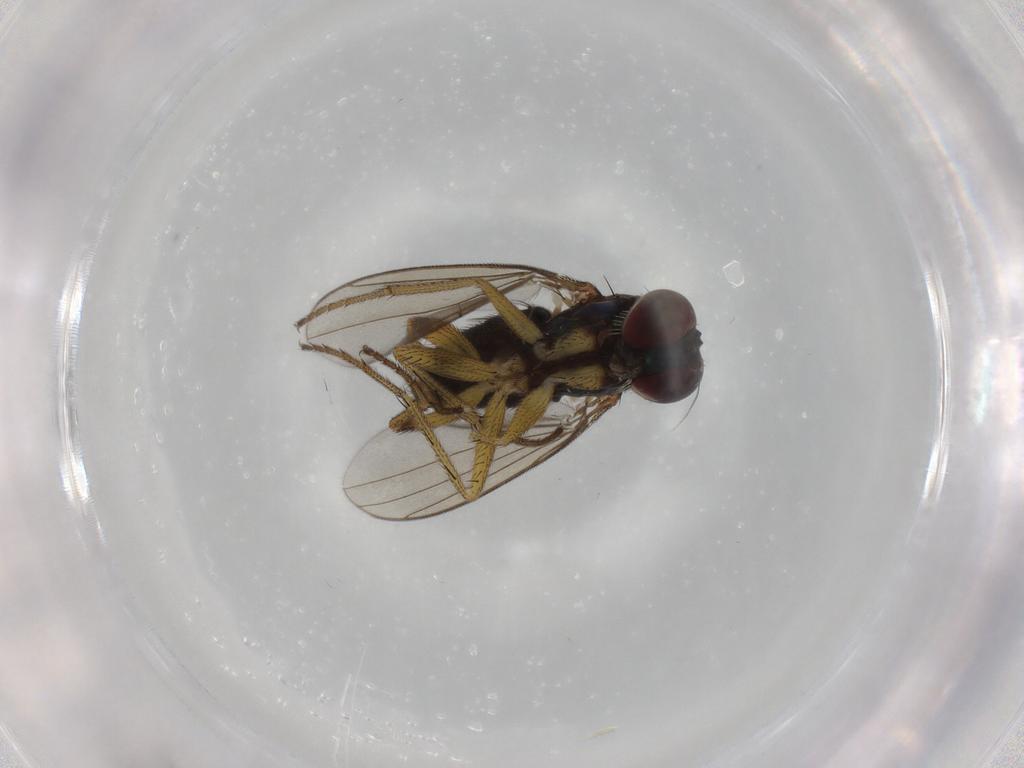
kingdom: Animalia
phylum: Arthropoda
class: Insecta
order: Diptera
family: Dolichopodidae
